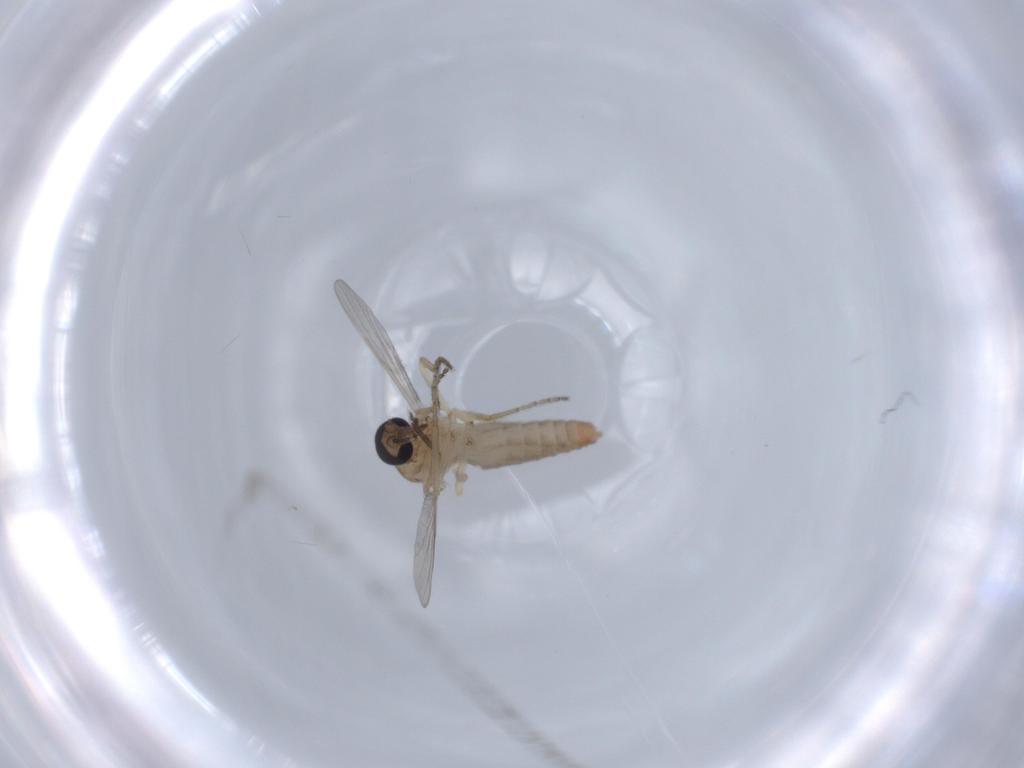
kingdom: Animalia
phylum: Arthropoda
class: Insecta
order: Diptera
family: Ceratopogonidae
